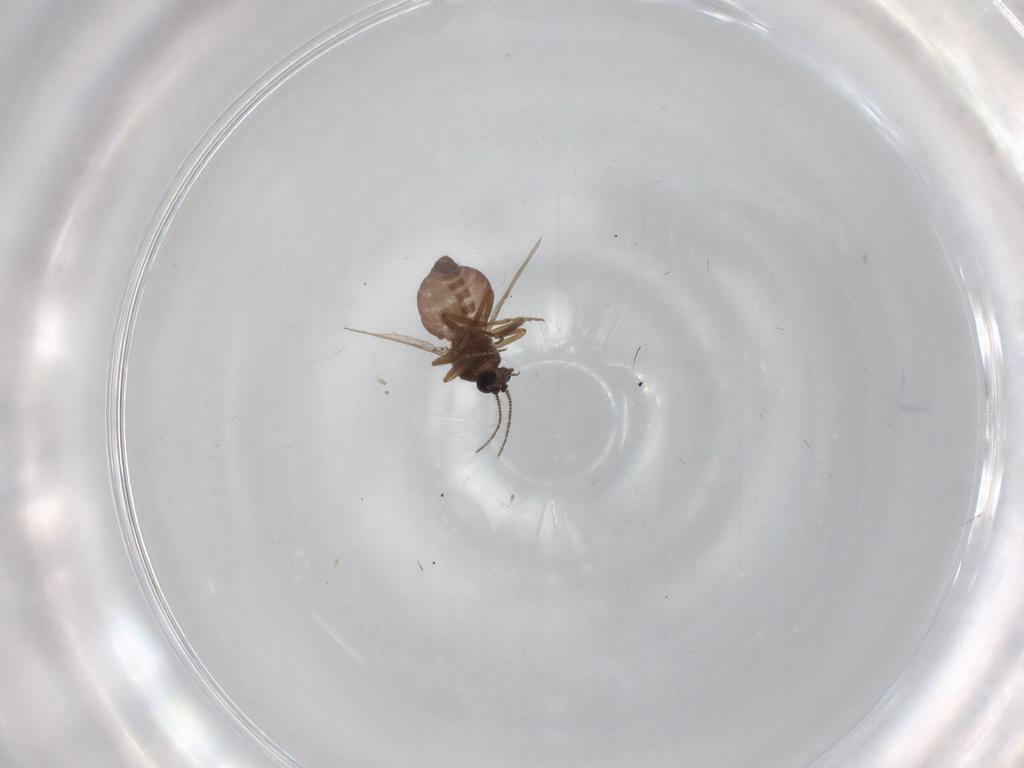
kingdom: Animalia
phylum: Arthropoda
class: Insecta
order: Diptera
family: Ceratopogonidae
